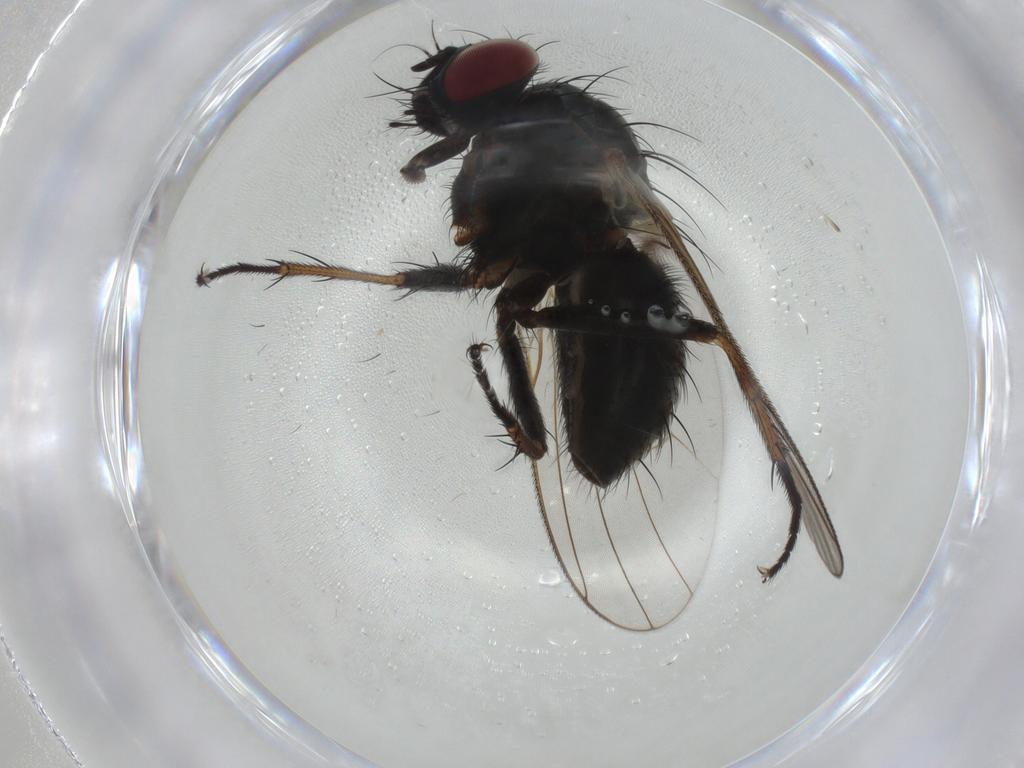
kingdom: Animalia
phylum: Arthropoda
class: Insecta
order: Diptera
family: Muscidae
